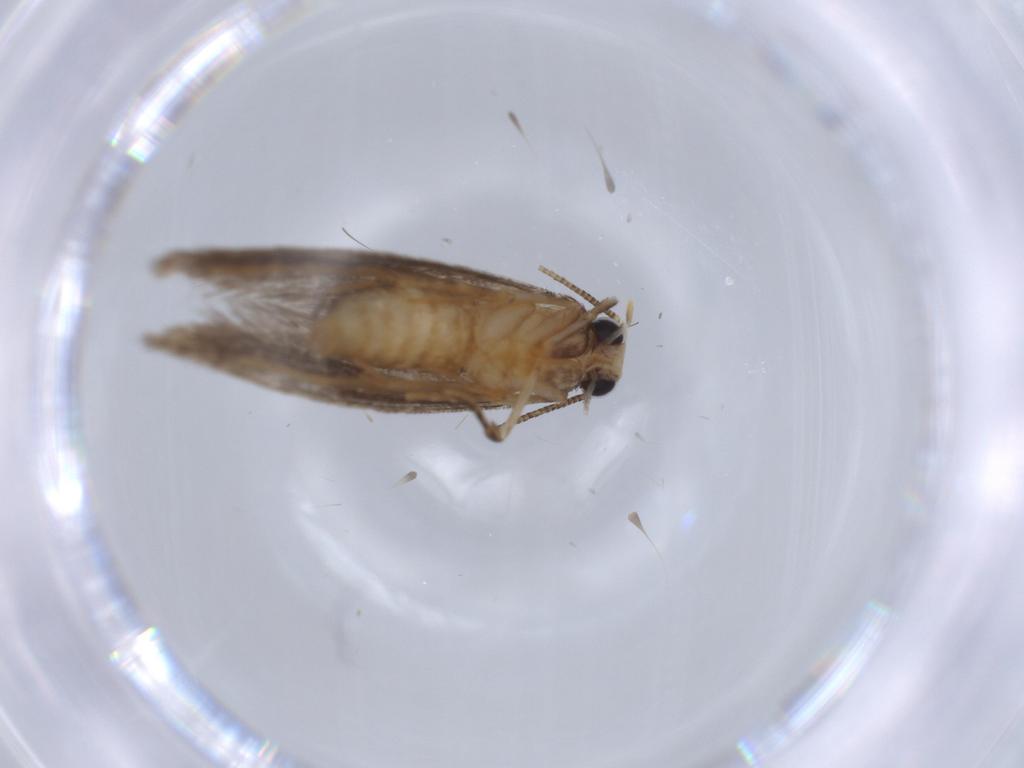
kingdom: Animalia
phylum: Arthropoda
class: Insecta
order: Lepidoptera
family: Tineidae
